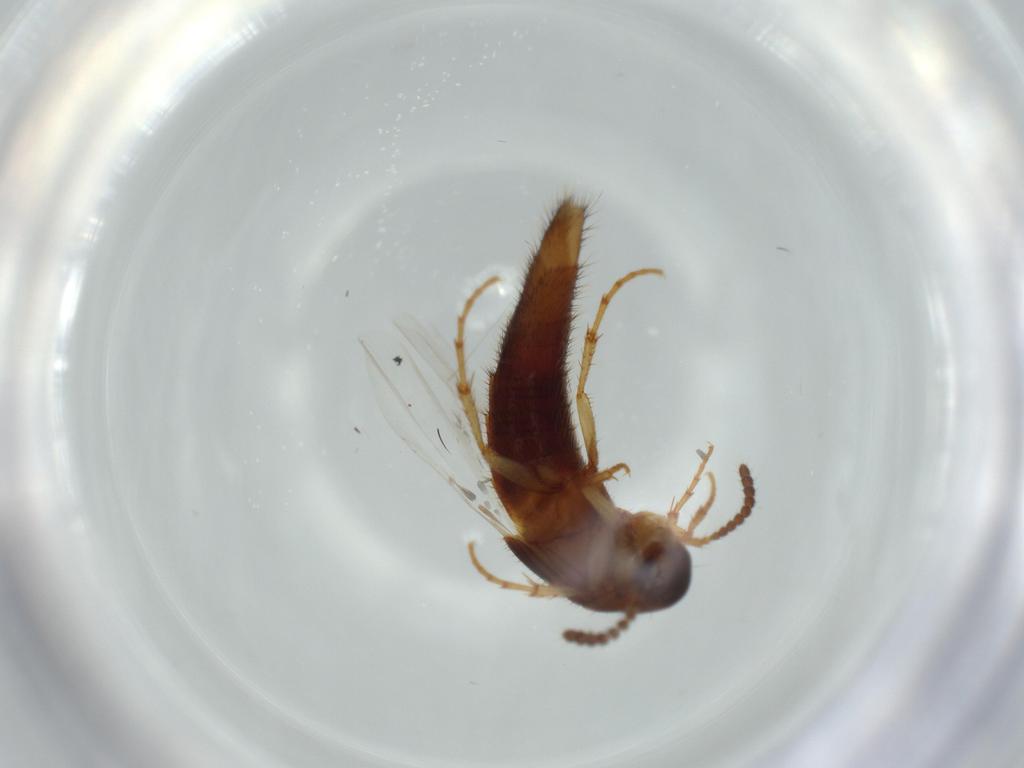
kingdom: Animalia
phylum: Arthropoda
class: Insecta
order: Coleoptera
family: Staphylinidae
